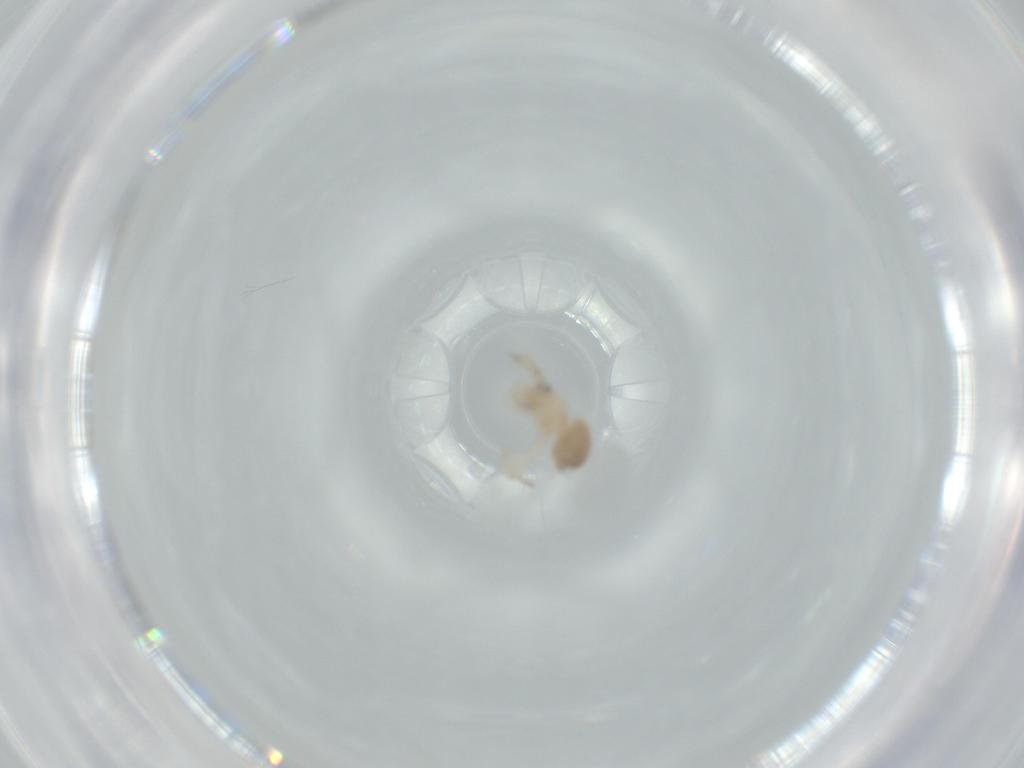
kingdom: Animalia
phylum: Arthropoda
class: Arachnida
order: Araneae
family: Oonopidae
